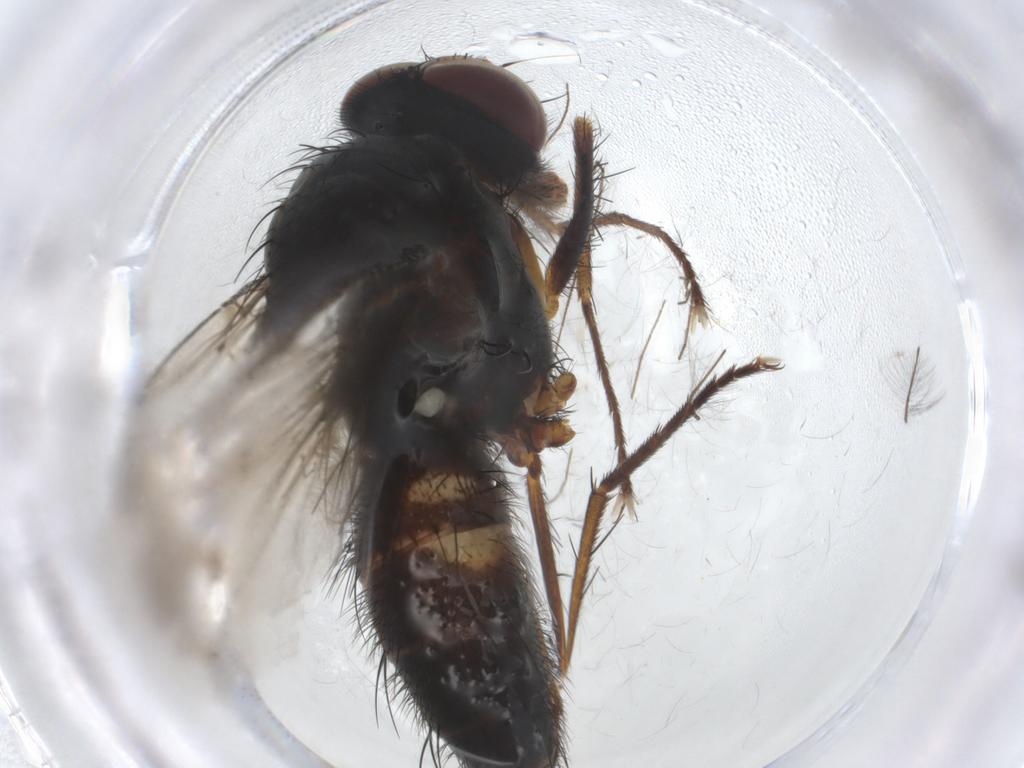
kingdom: Animalia
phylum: Arthropoda
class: Insecta
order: Diptera
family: Anthomyiidae
